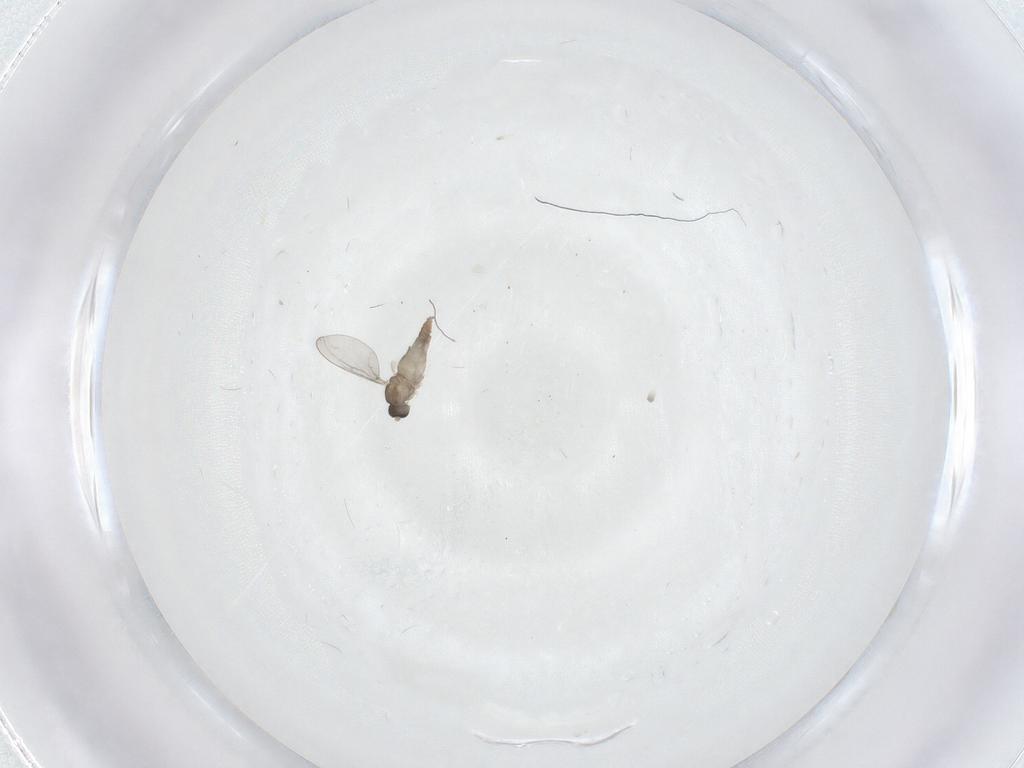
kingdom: Animalia
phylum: Arthropoda
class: Insecta
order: Diptera
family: Cecidomyiidae
